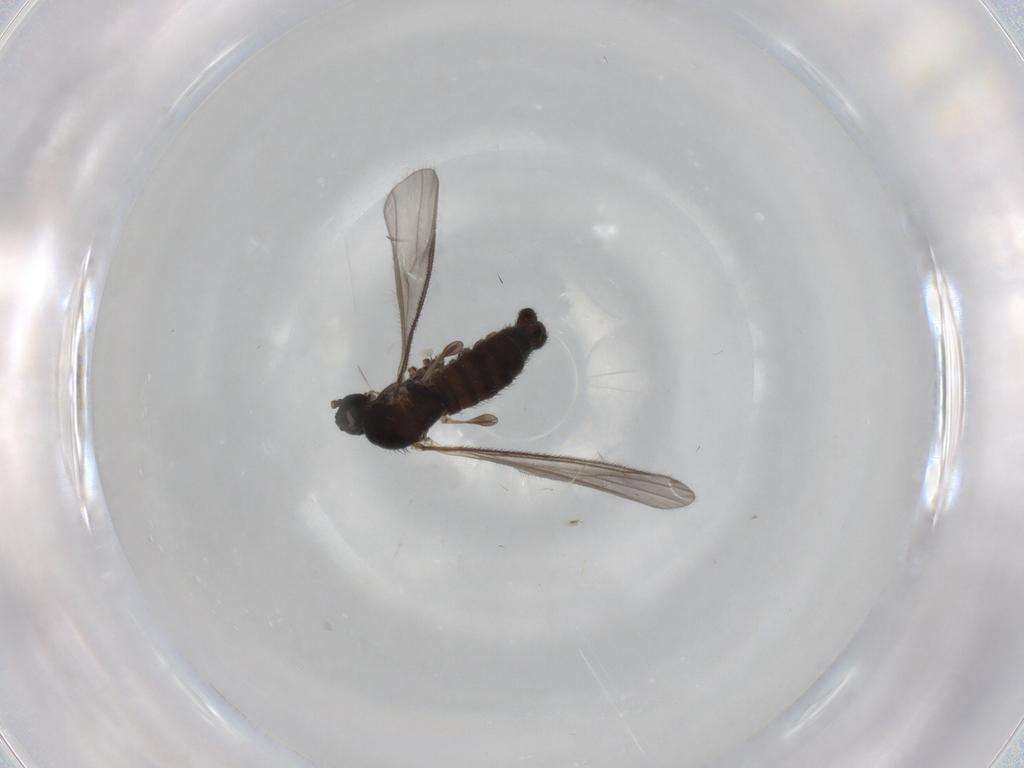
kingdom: Animalia
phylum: Arthropoda
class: Insecta
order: Diptera
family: Sciaridae
